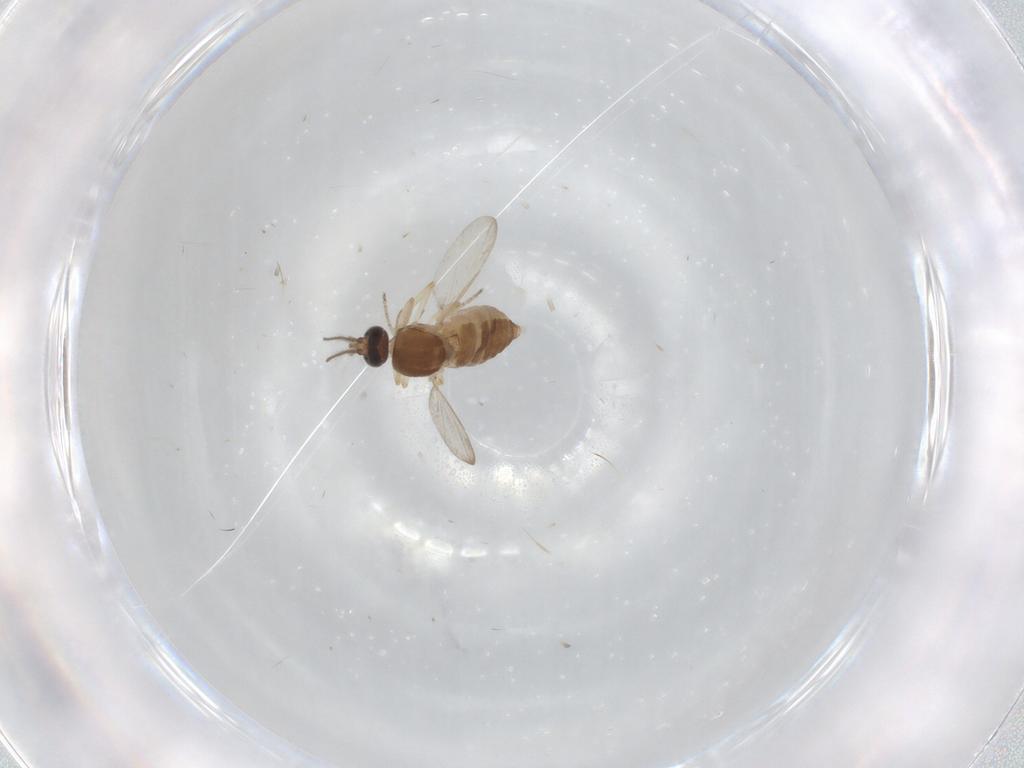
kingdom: Animalia
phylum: Arthropoda
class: Insecta
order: Diptera
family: Ceratopogonidae
